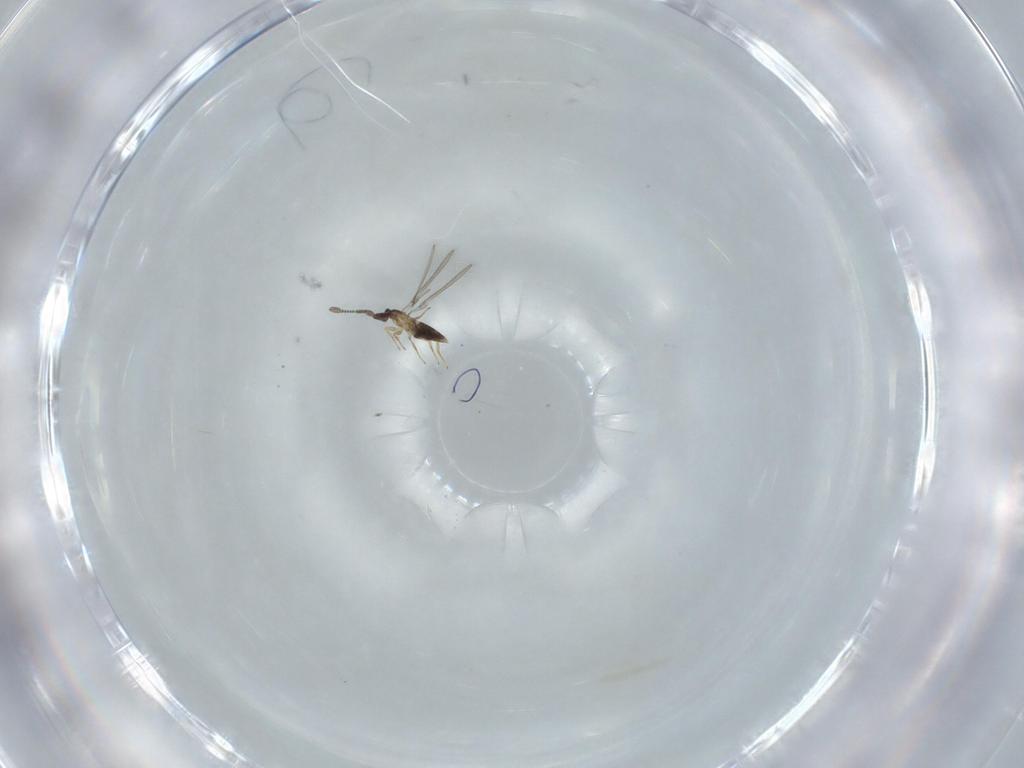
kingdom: Animalia
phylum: Arthropoda
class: Insecta
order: Hymenoptera
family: Mymaridae
